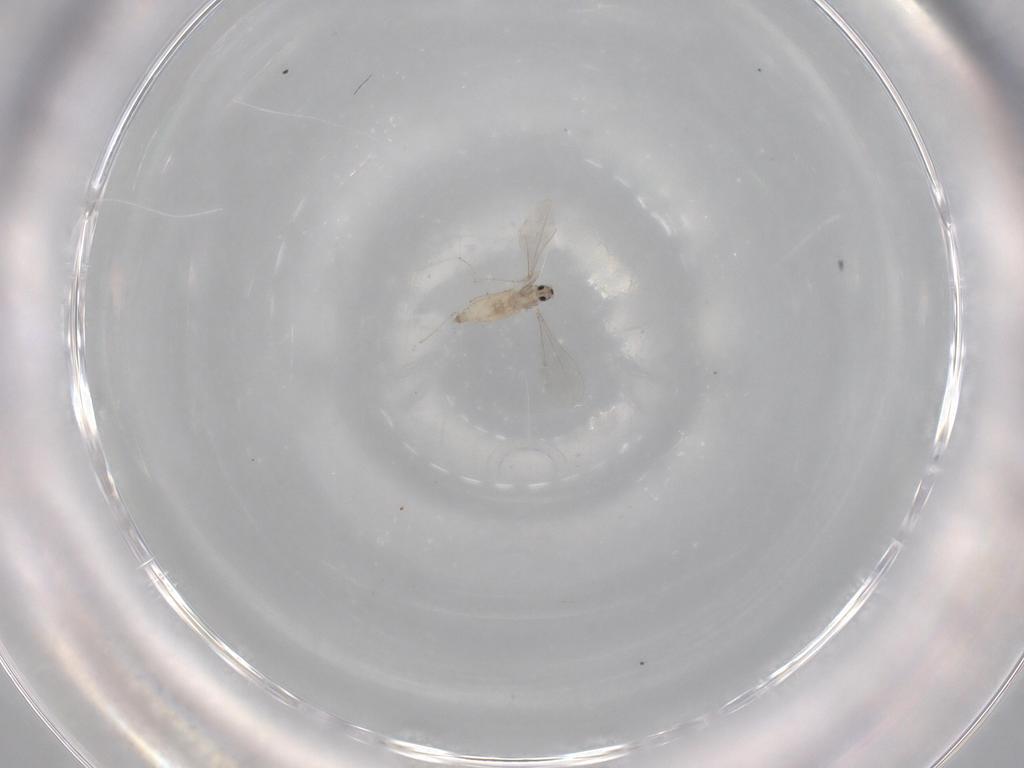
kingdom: Animalia
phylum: Arthropoda
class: Insecta
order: Diptera
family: Cecidomyiidae
